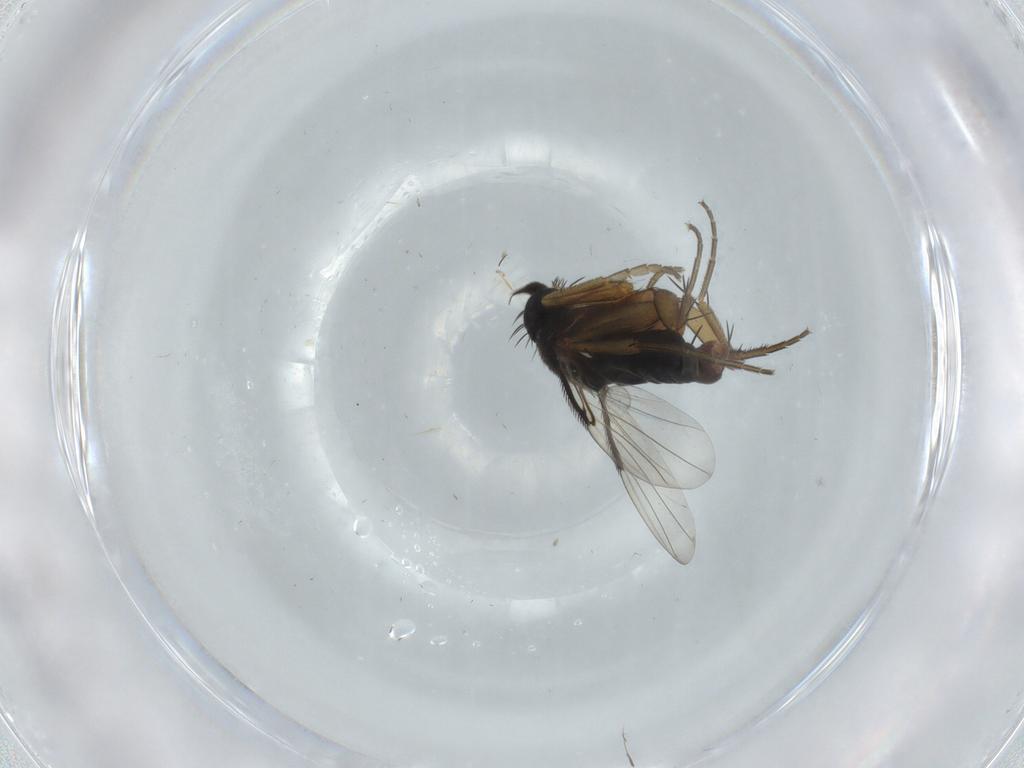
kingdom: Animalia
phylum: Arthropoda
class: Insecta
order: Diptera
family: Phoridae
